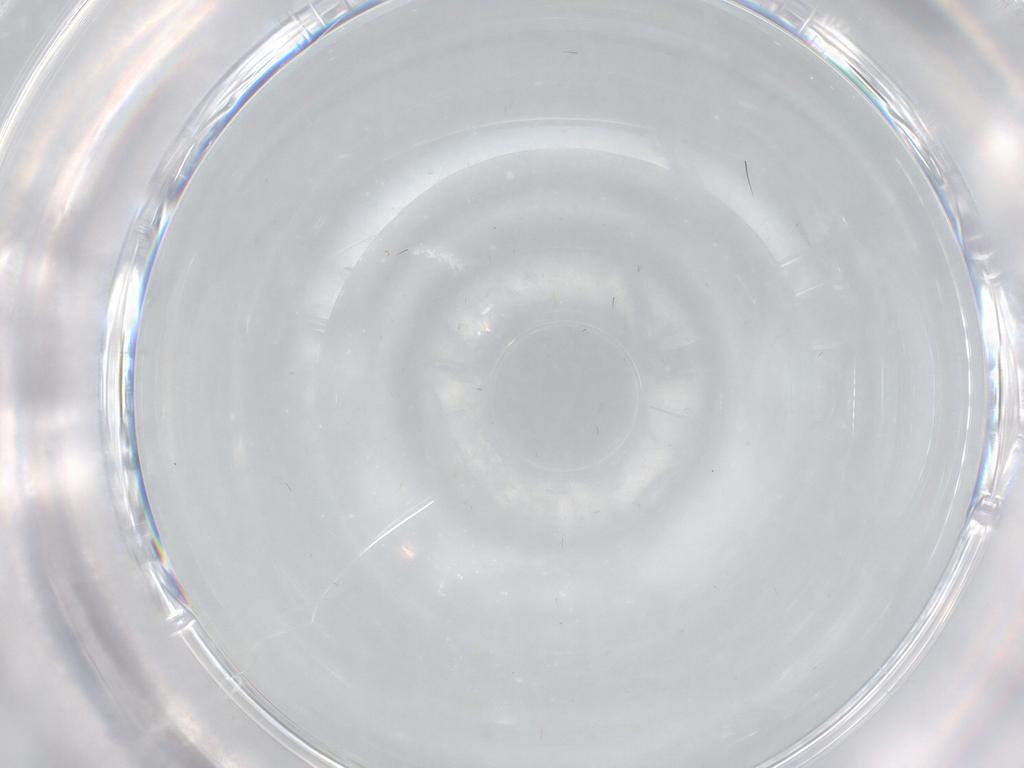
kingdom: Animalia
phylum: Arthropoda
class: Insecta
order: Diptera
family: Cecidomyiidae
